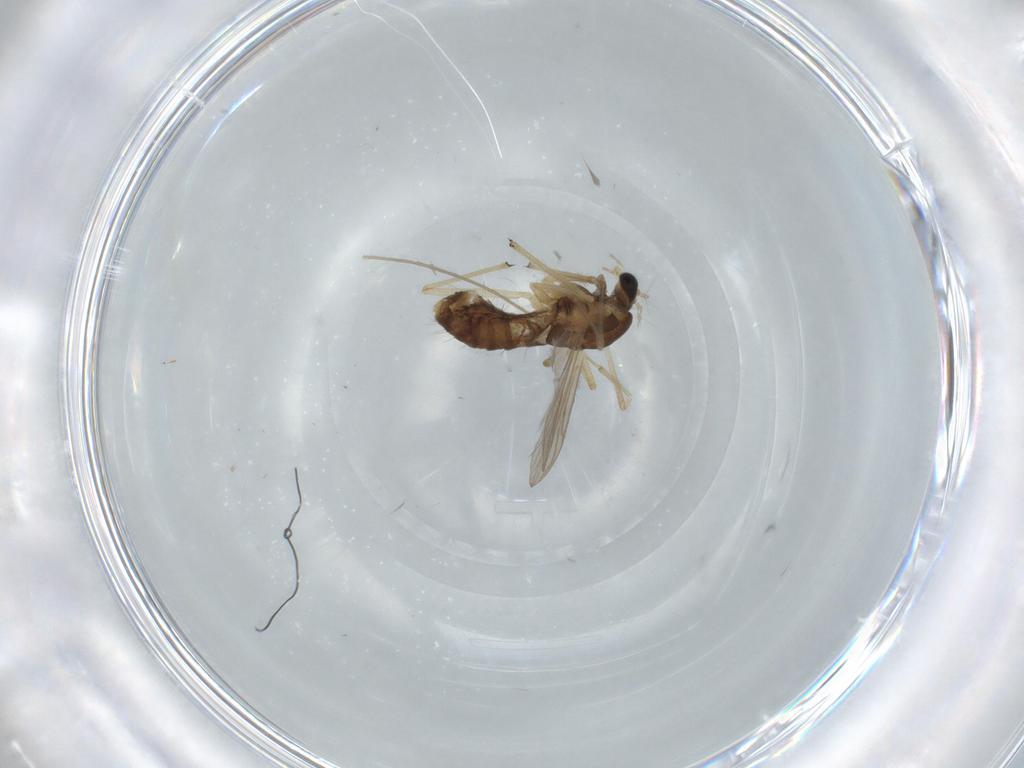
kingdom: Animalia
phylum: Arthropoda
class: Insecta
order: Diptera
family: Chironomidae
